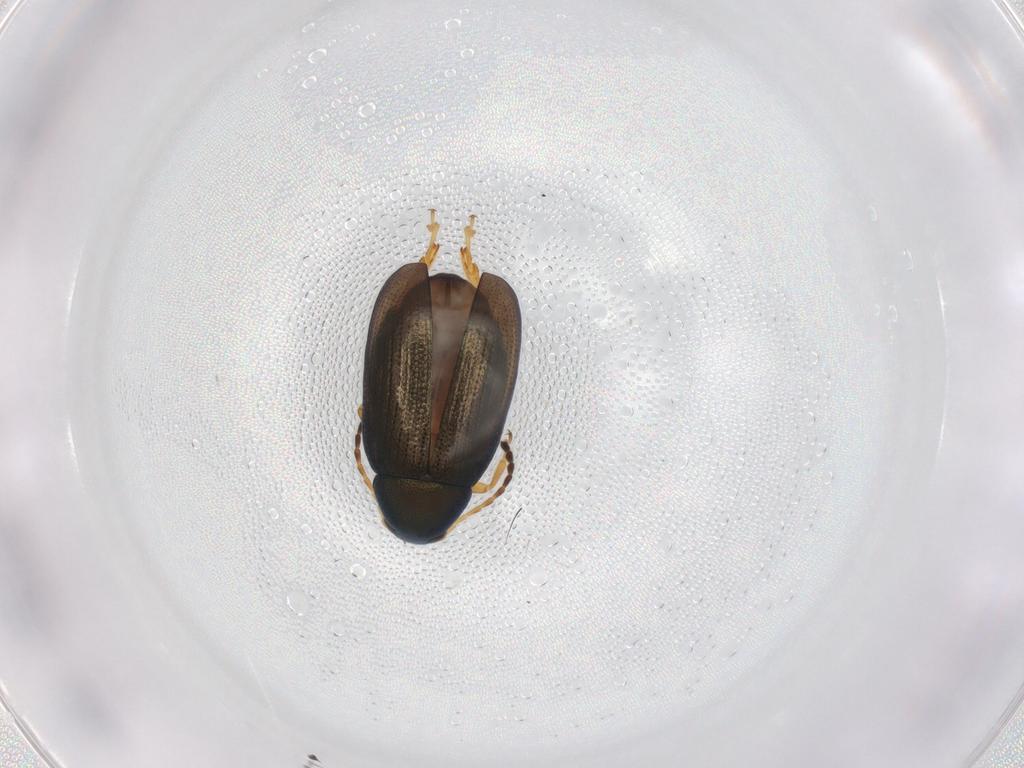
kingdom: Animalia
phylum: Arthropoda
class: Insecta
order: Coleoptera
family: Chrysomelidae
